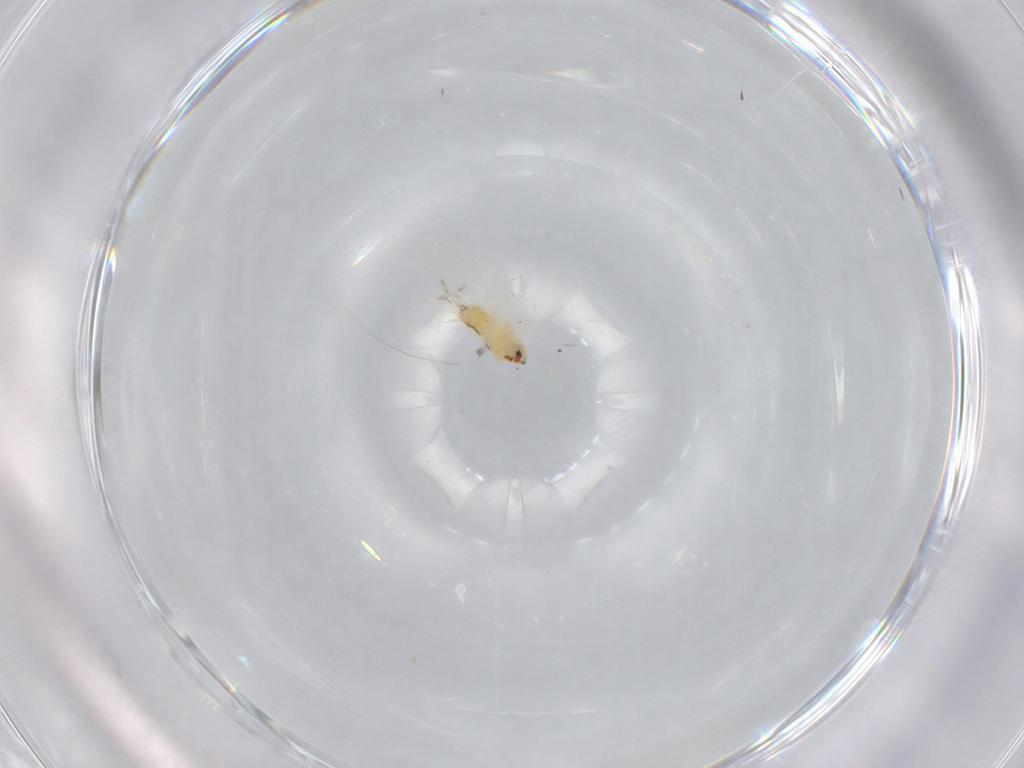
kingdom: Animalia
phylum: Arthropoda
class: Insecta
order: Hemiptera
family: Aleyrodidae
